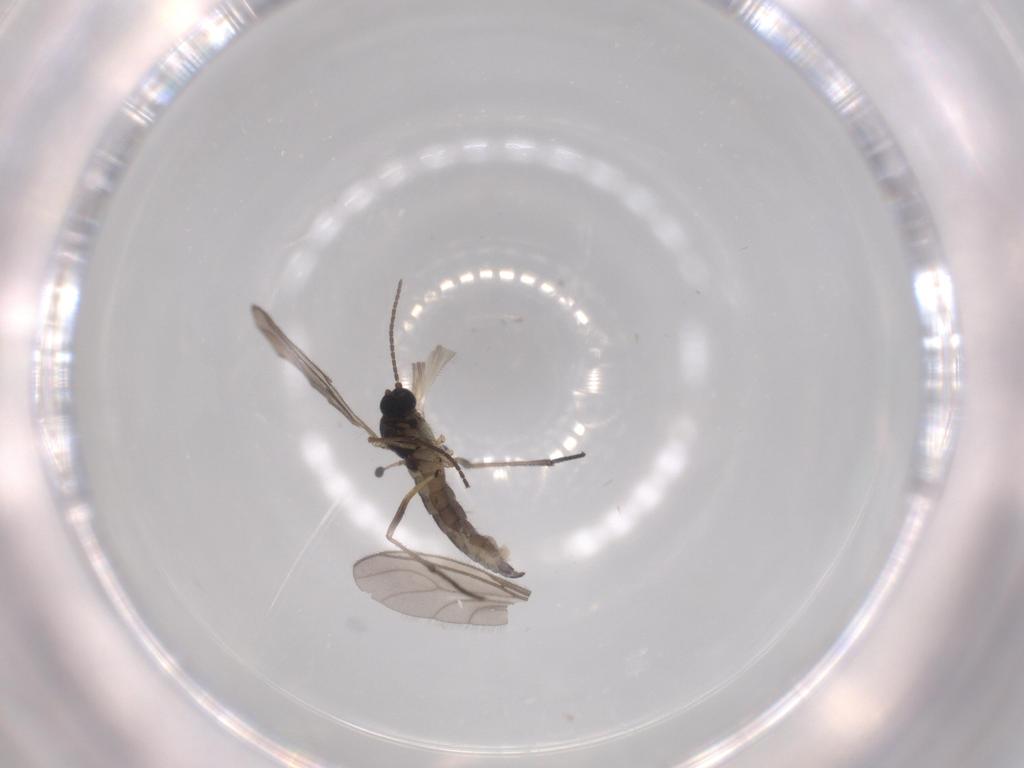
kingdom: Animalia
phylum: Arthropoda
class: Insecta
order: Diptera
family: Sciaridae
